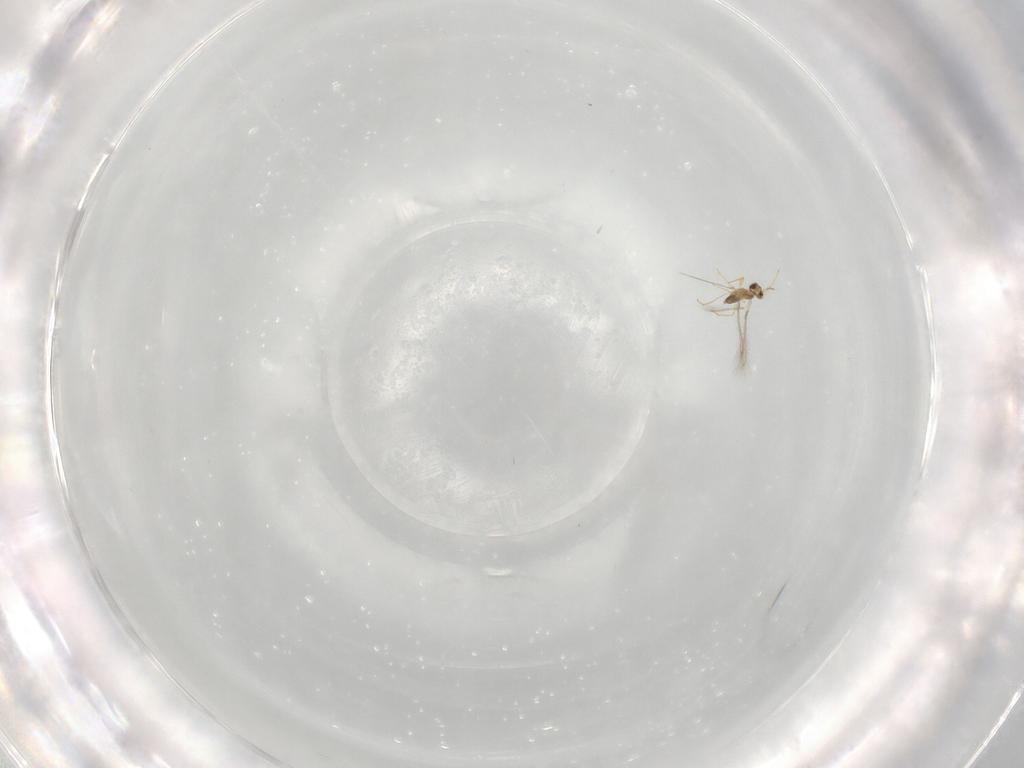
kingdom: Animalia
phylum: Arthropoda
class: Insecta
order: Hymenoptera
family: Mymaridae
